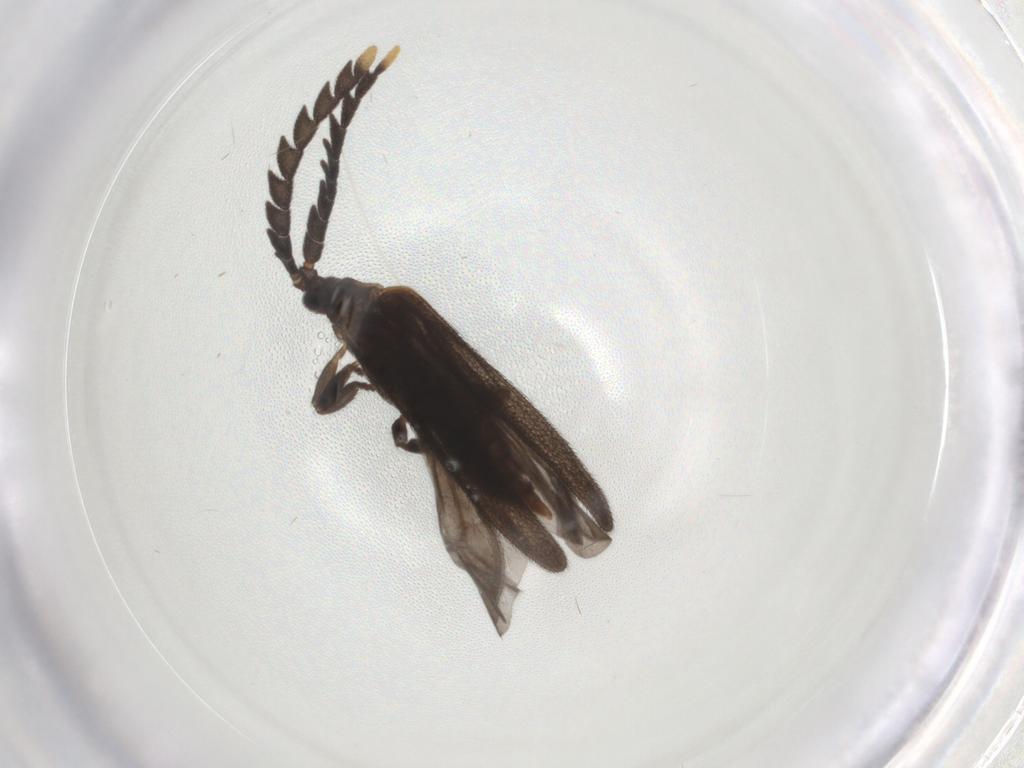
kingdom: Animalia
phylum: Arthropoda
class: Insecta
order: Coleoptera
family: Lycidae
